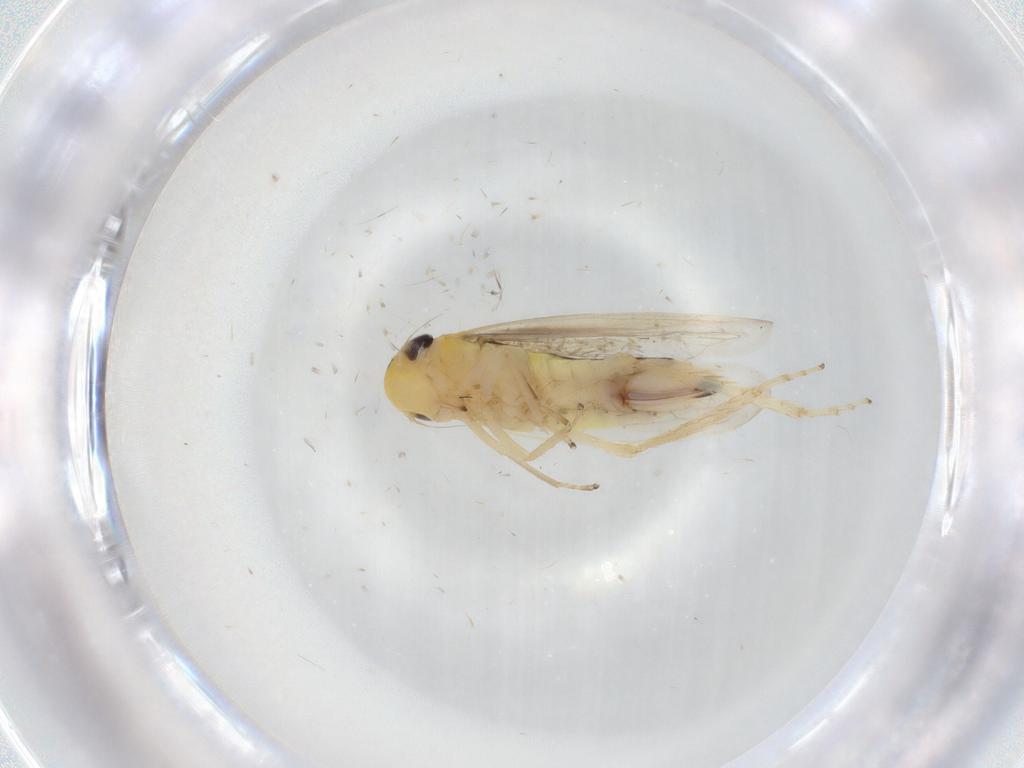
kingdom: Animalia
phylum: Arthropoda
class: Insecta
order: Hemiptera
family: Cicadellidae
